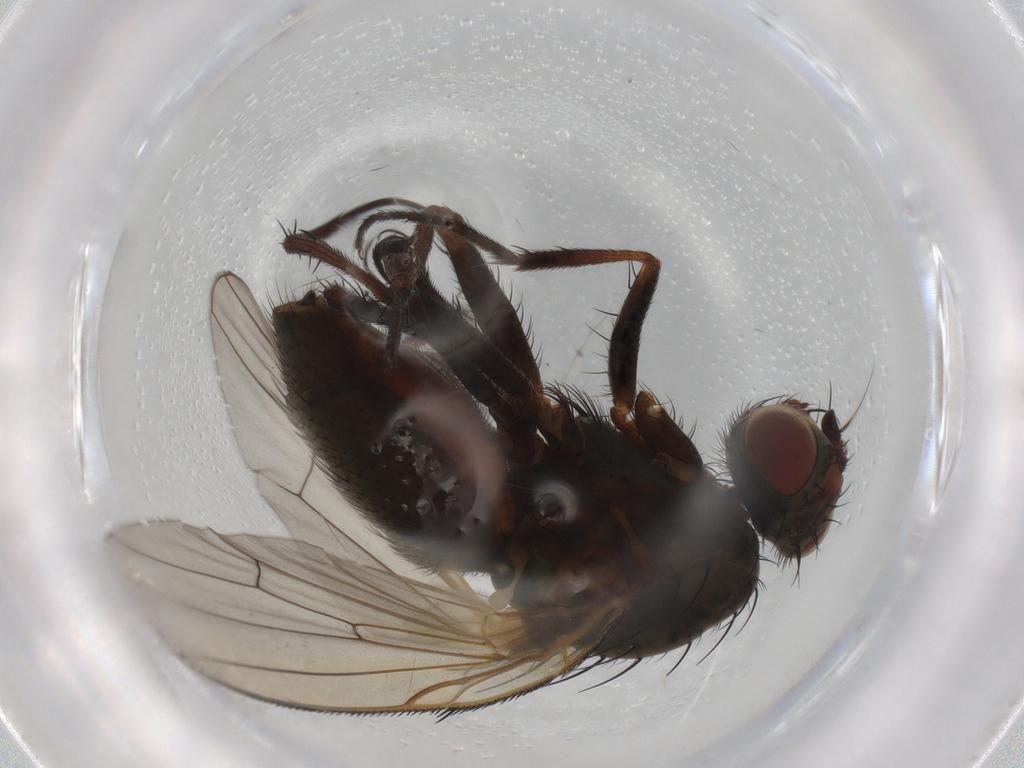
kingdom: Animalia
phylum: Arthropoda
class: Insecta
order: Diptera
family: Anthomyiidae
